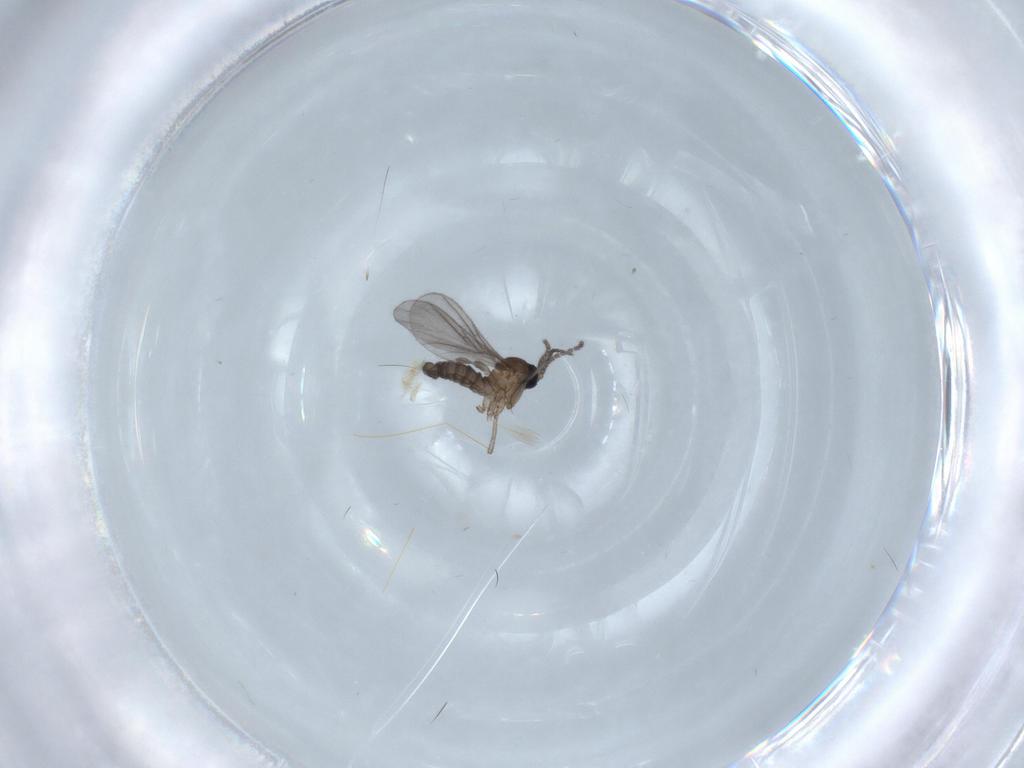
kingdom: Animalia
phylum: Arthropoda
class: Insecta
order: Diptera
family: Sciaridae
